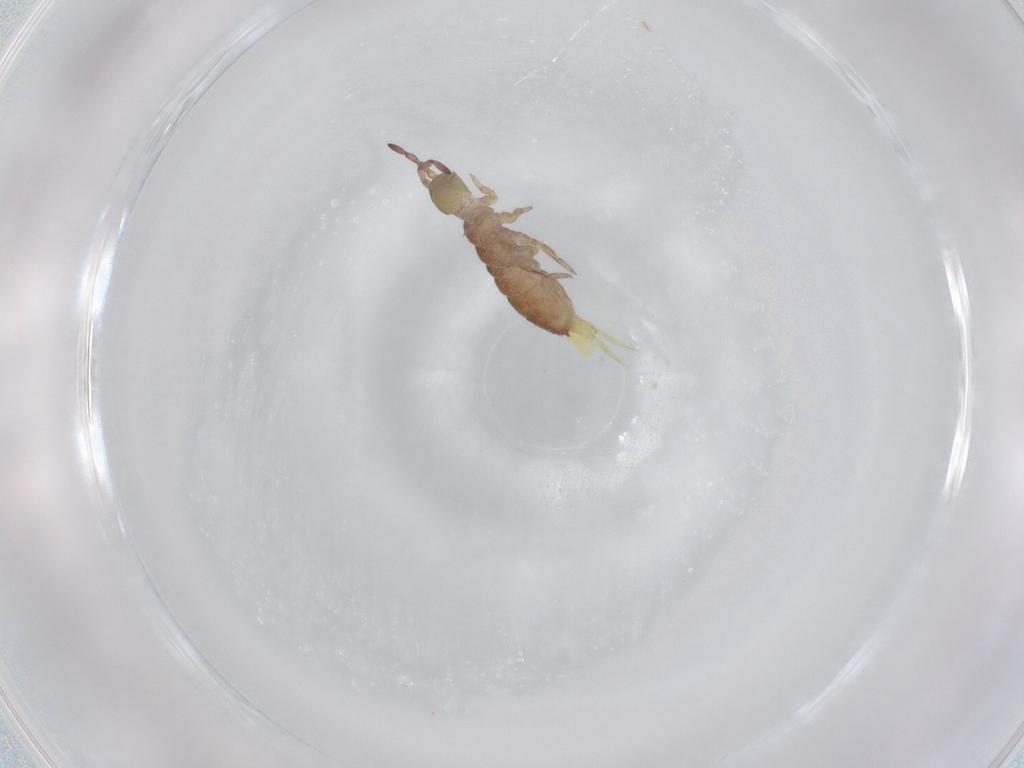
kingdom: Animalia
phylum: Arthropoda
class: Collembola
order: Entomobryomorpha
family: Isotomidae
